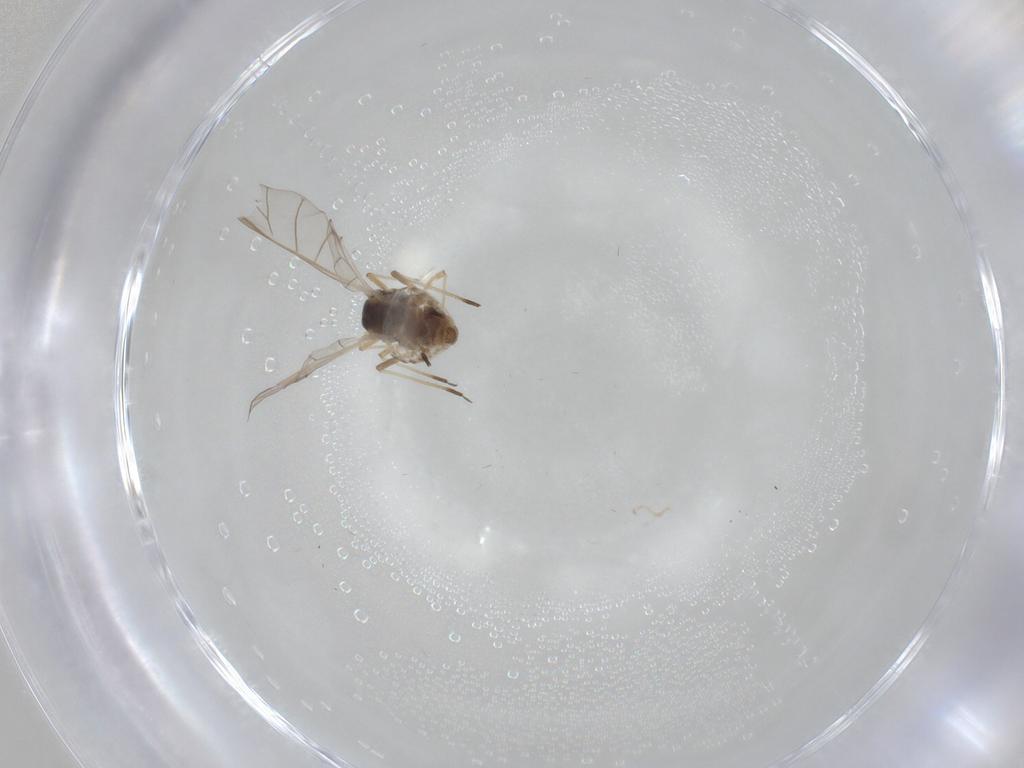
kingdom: Animalia
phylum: Arthropoda
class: Insecta
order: Hemiptera
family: Aphididae
